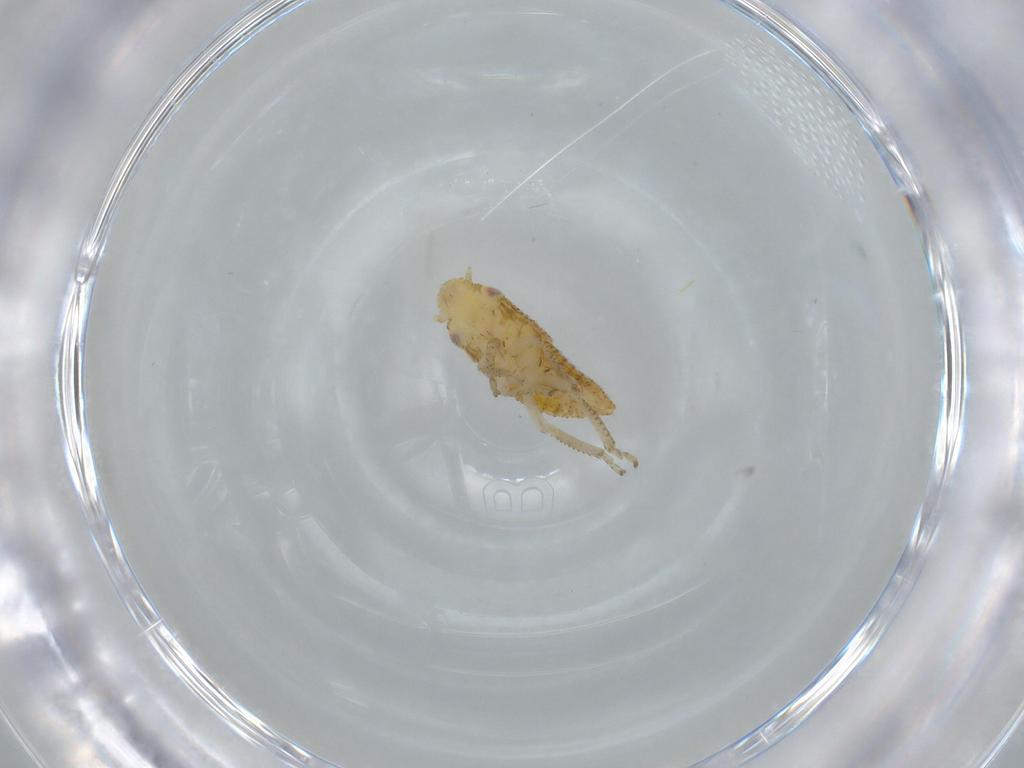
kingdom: Animalia
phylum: Arthropoda
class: Insecta
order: Hemiptera
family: Cicadellidae
